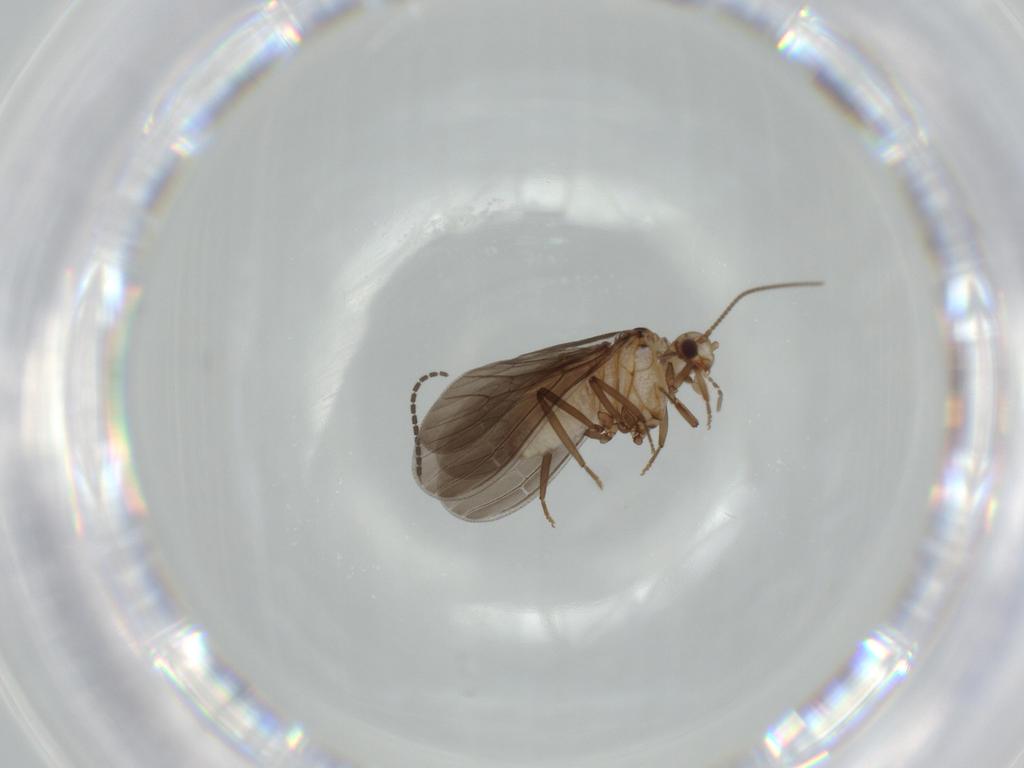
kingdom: Animalia
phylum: Arthropoda
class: Insecta
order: Neuroptera
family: Coniopterygidae
